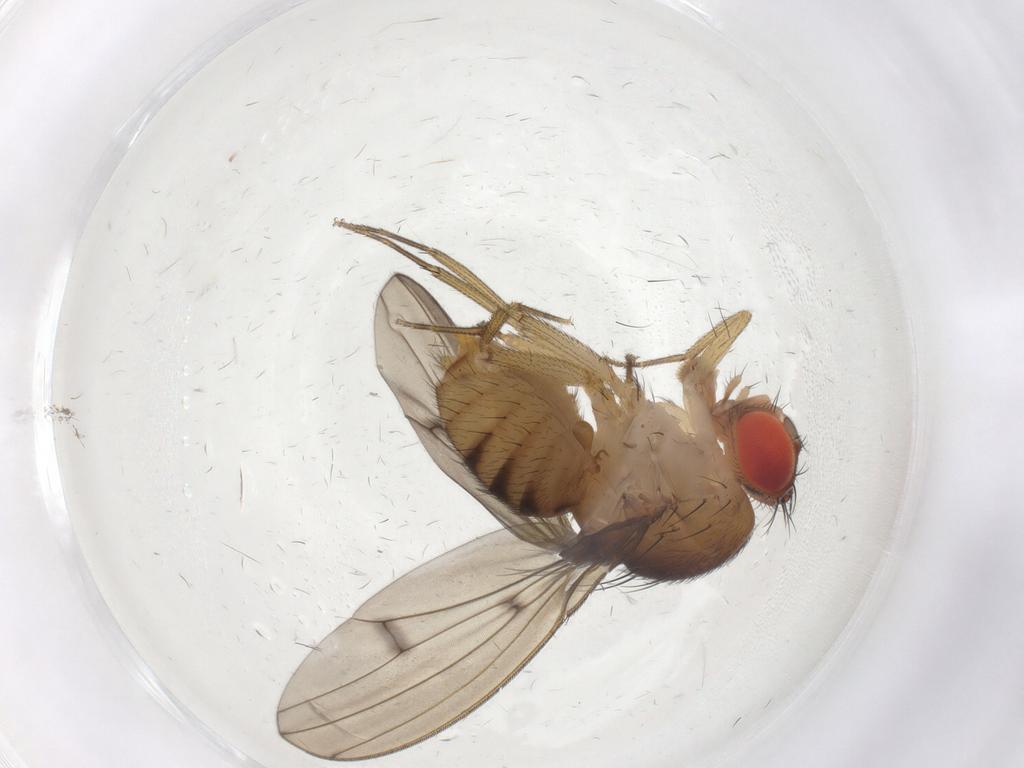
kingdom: Animalia
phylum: Arthropoda
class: Insecta
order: Diptera
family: Drosophilidae
